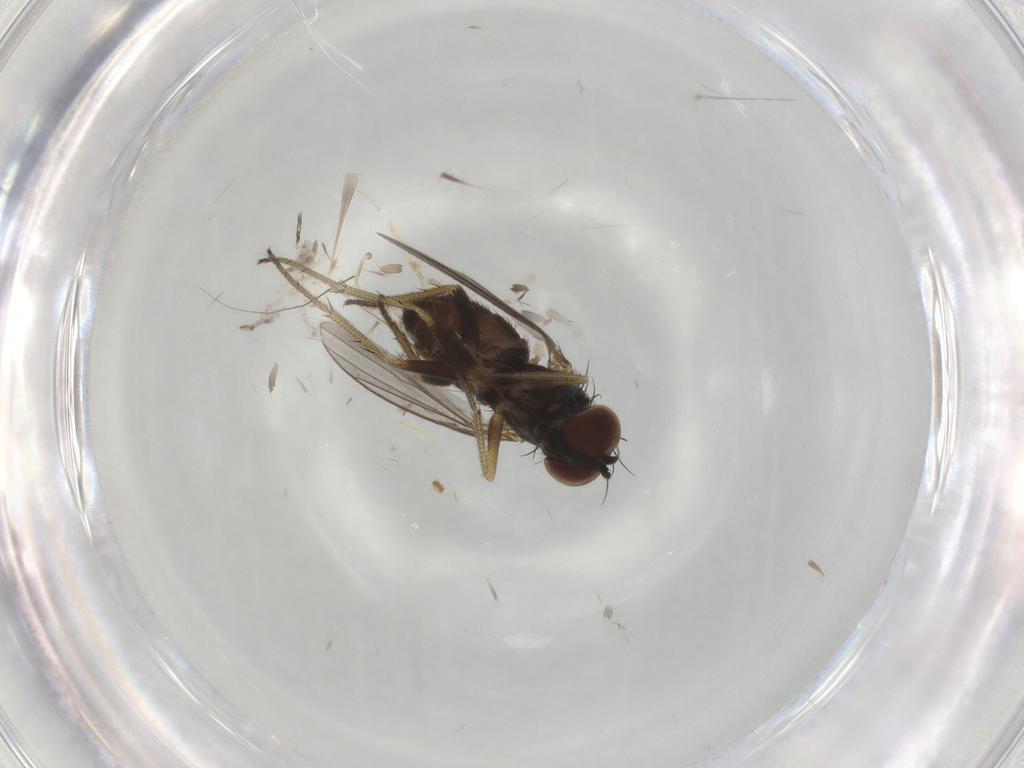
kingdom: Animalia
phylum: Arthropoda
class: Insecta
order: Diptera
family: Dolichopodidae
